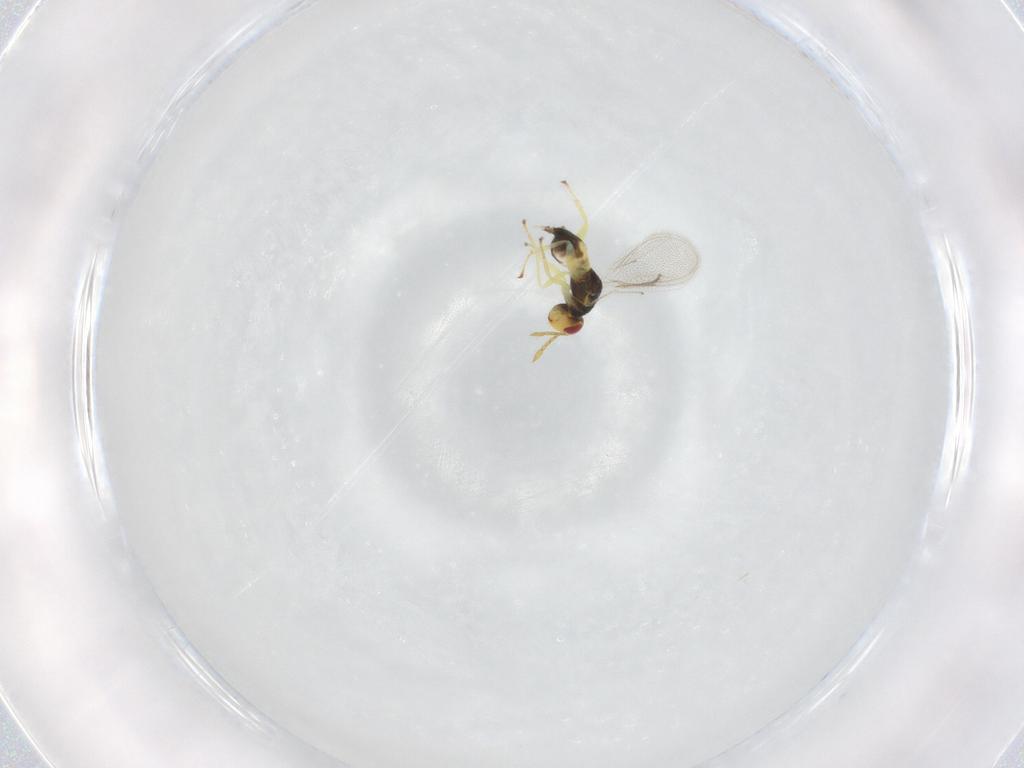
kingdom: Animalia
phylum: Arthropoda
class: Insecta
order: Hymenoptera
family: Eulophidae
